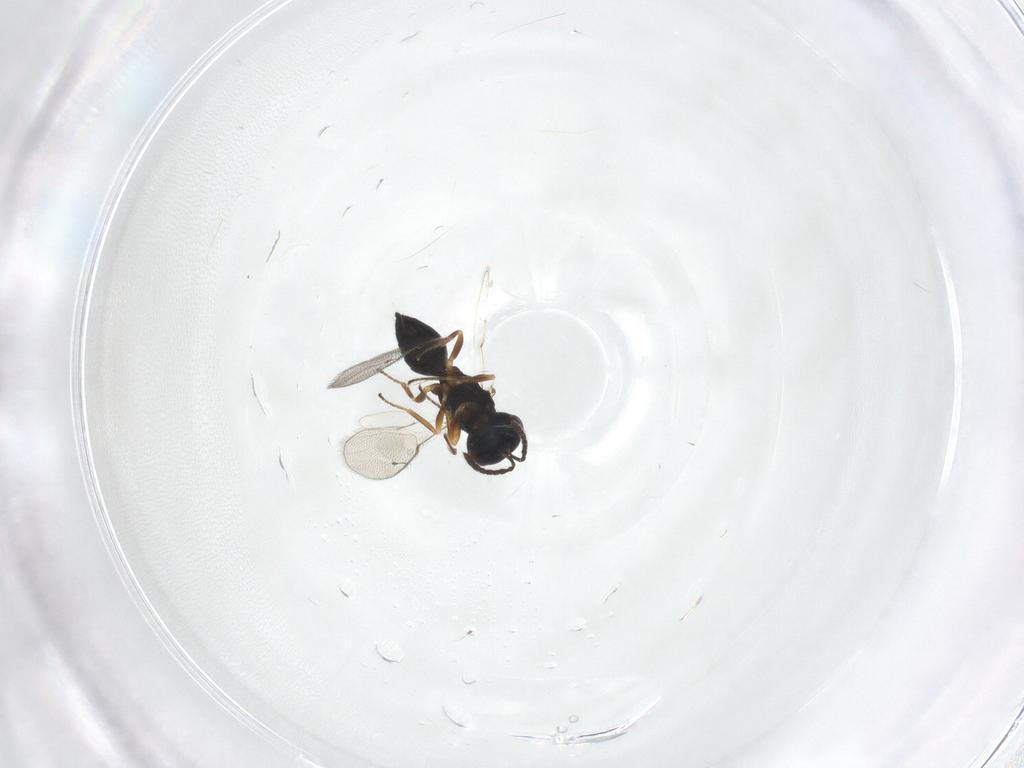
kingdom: Animalia
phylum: Arthropoda
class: Insecta
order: Hymenoptera
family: Pteromalidae
